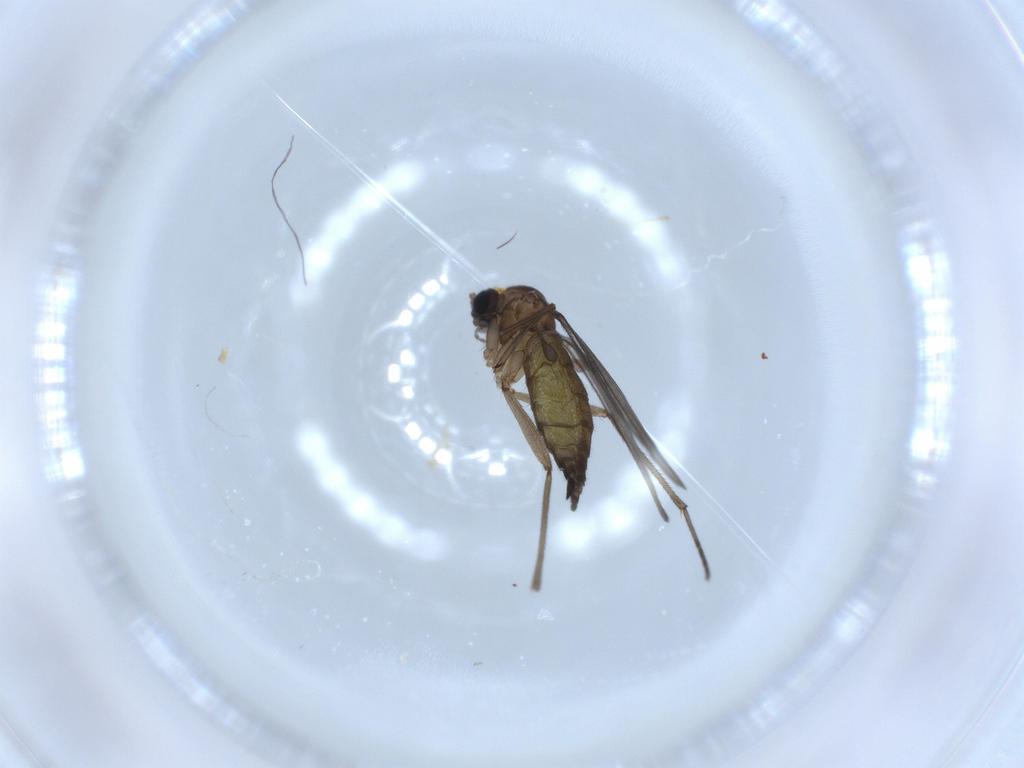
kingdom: Animalia
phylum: Arthropoda
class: Insecta
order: Diptera
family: Sciaridae
